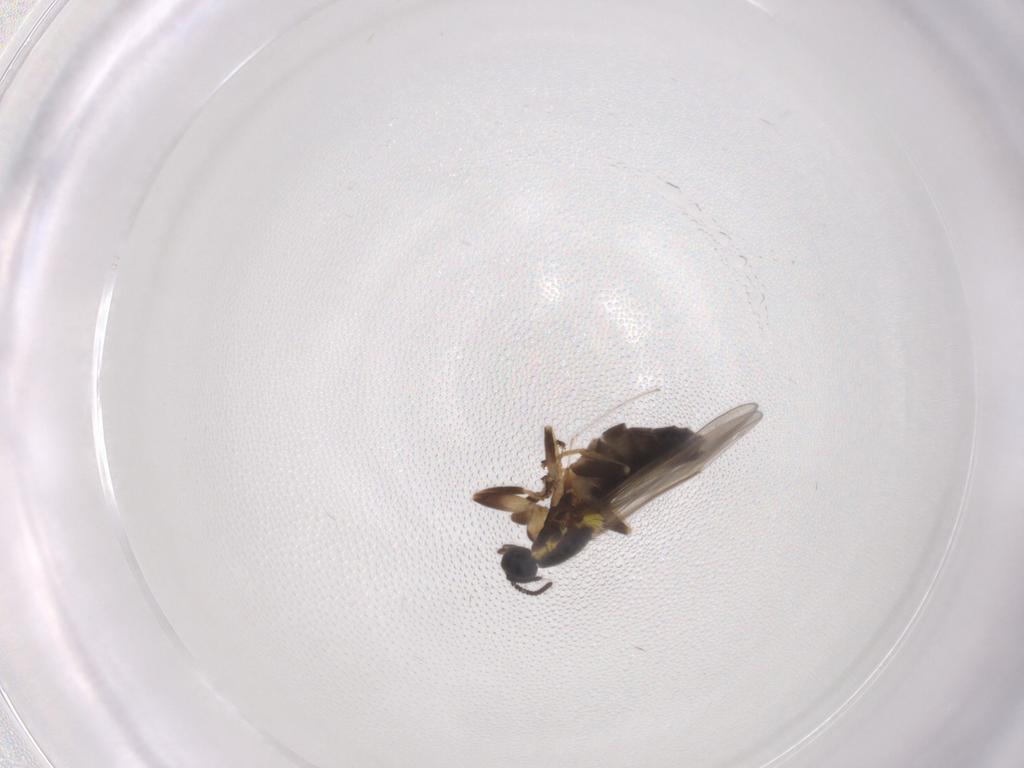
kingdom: Animalia
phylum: Arthropoda
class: Insecta
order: Diptera
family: Scatopsidae
